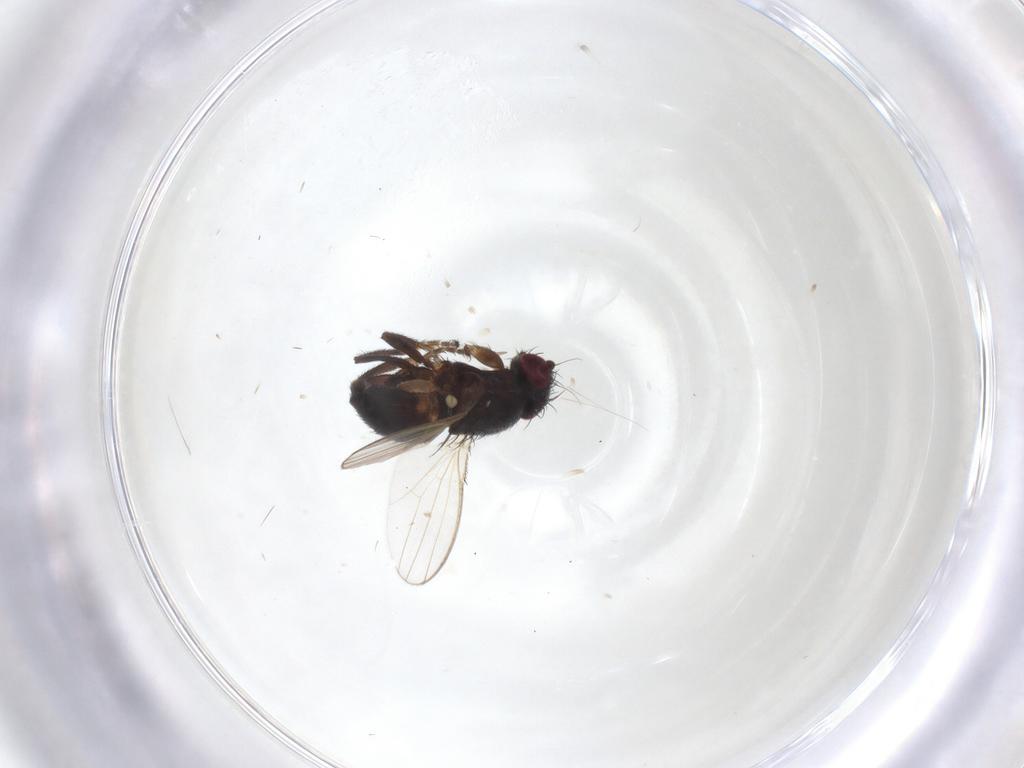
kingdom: Animalia
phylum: Arthropoda
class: Insecta
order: Diptera
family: Milichiidae
